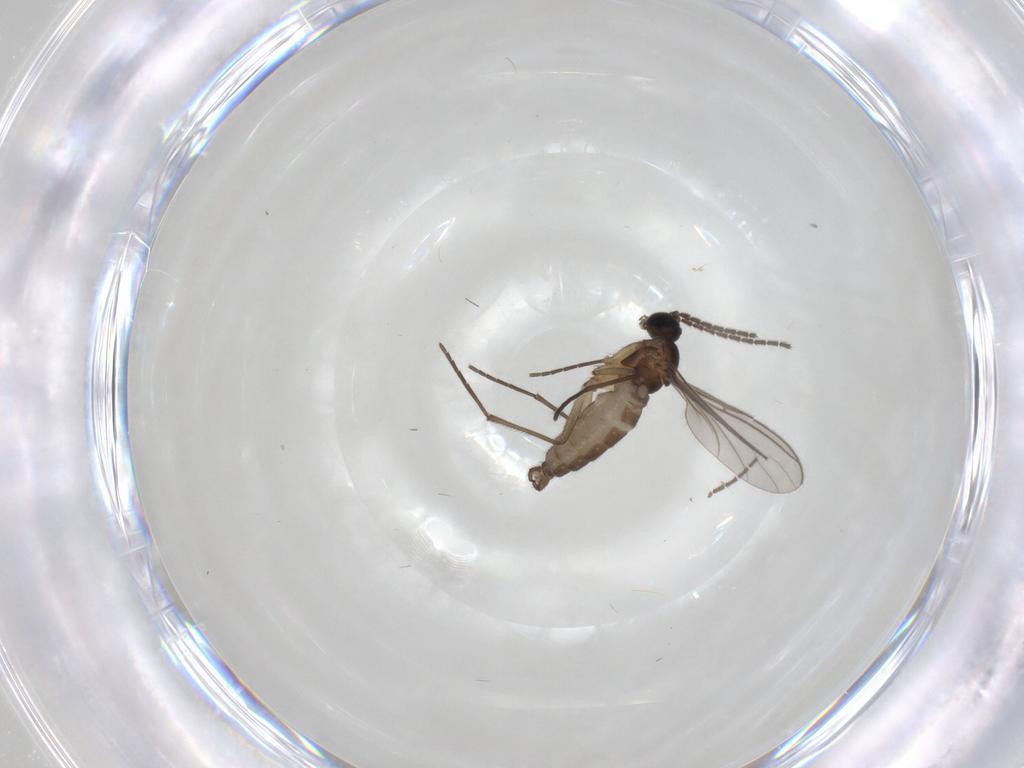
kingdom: Animalia
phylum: Arthropoda
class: Insecta
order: Diptera
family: Sciaridae
